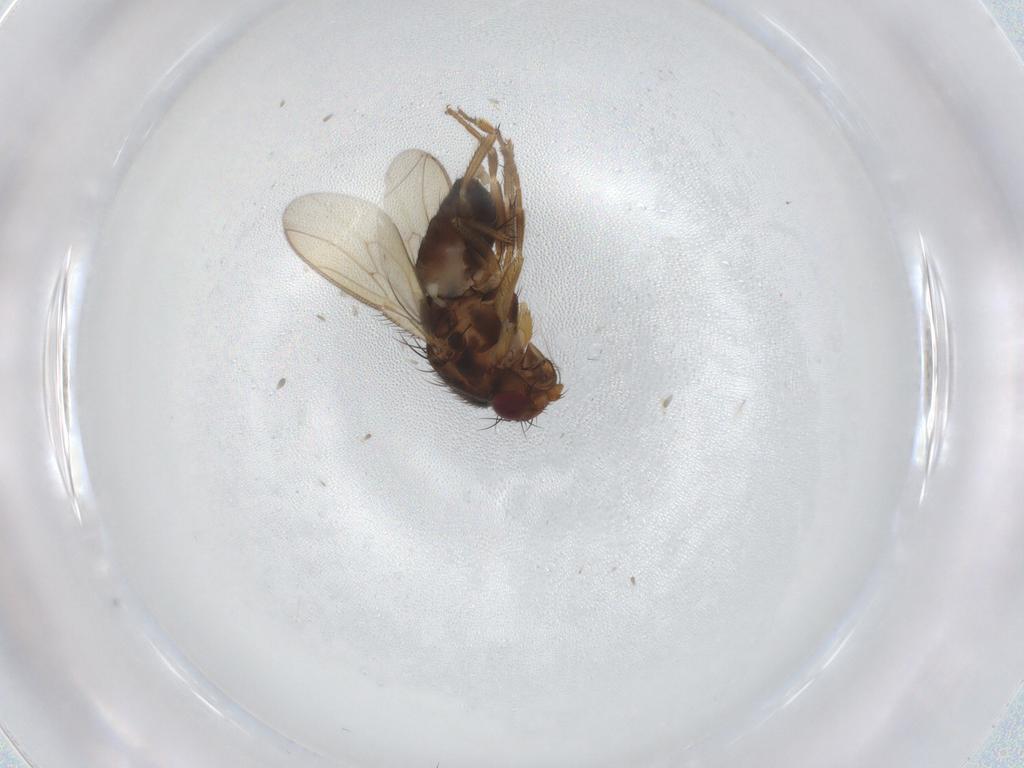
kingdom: Animalia
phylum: Arthropoda
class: Insecta
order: Diptera
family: Sphaeroceridae
